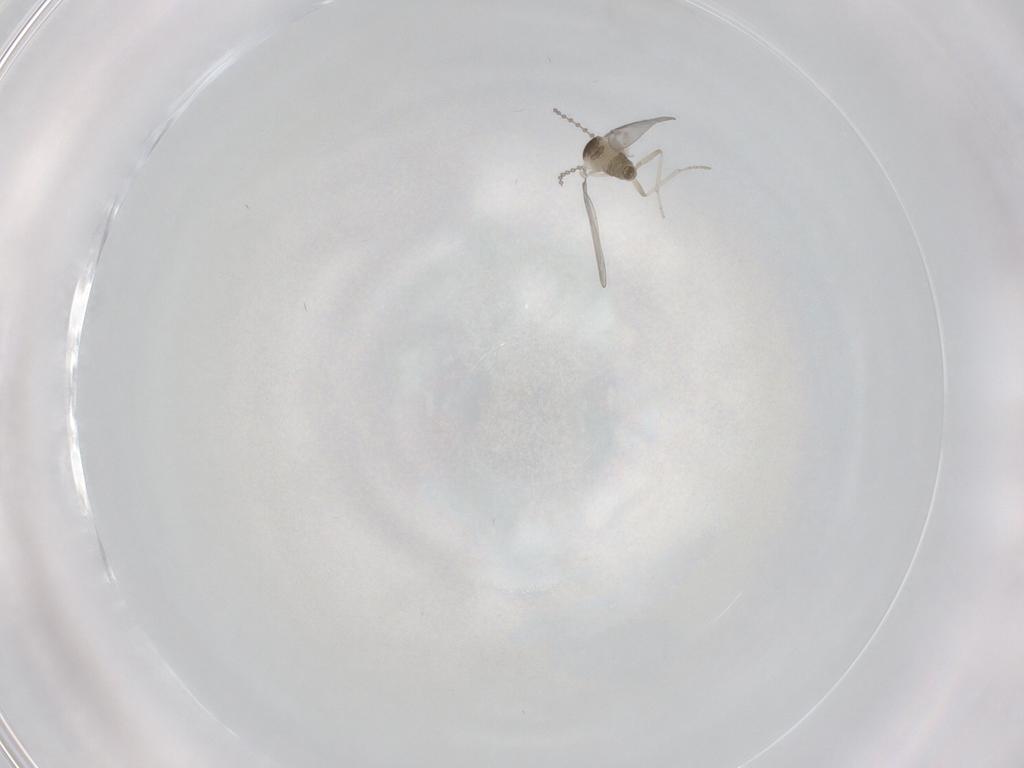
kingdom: Animalia
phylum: Arthropoda
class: Insecta
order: Diptera
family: Cecidomyiidae
